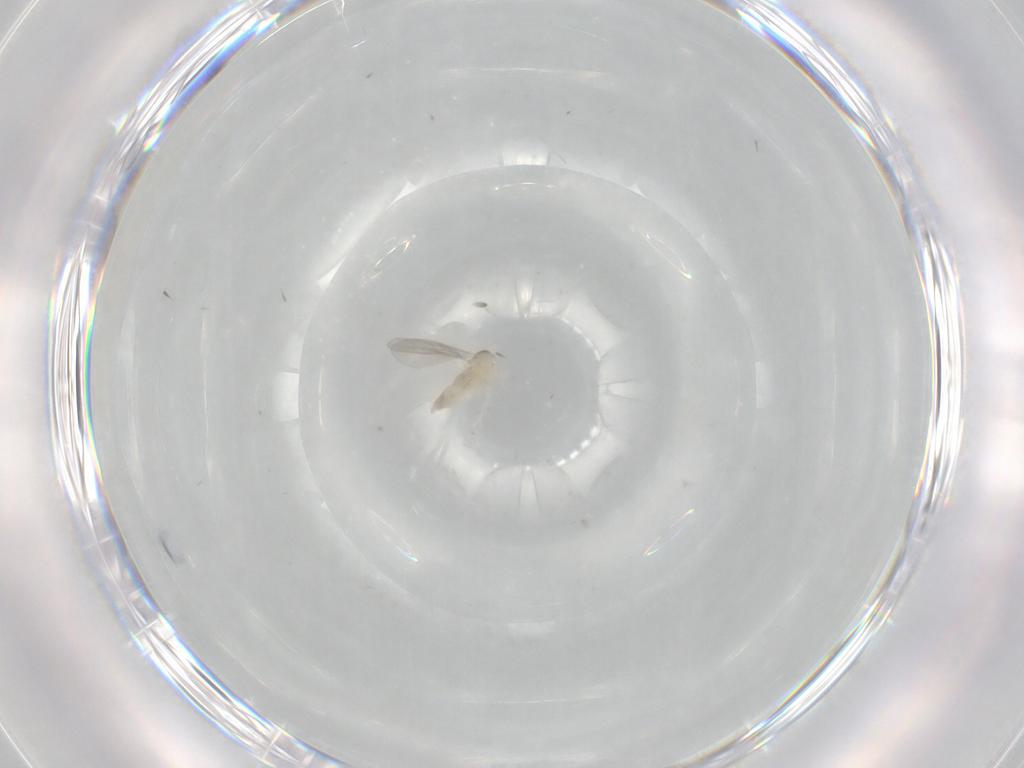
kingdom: Animalia
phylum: Arthropoda
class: Insecta
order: Diptera
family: Cecidomyiidae
